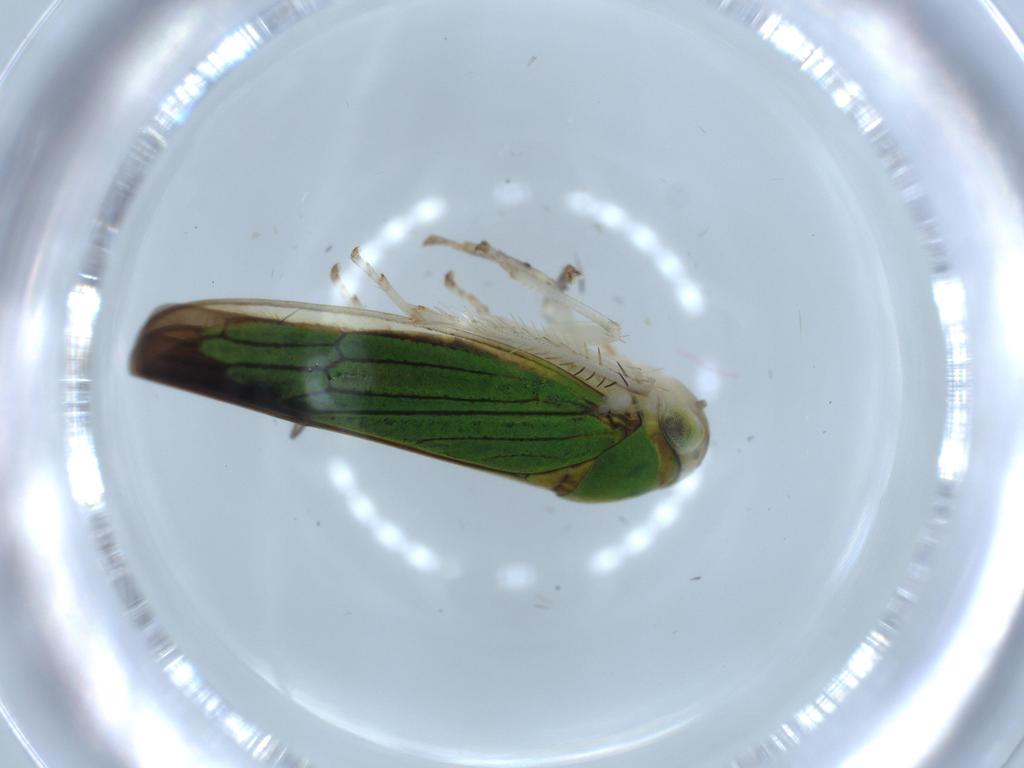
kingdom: Animalia
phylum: Arthropoda
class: Insecta
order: Hemiptera
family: Cicadellidae
